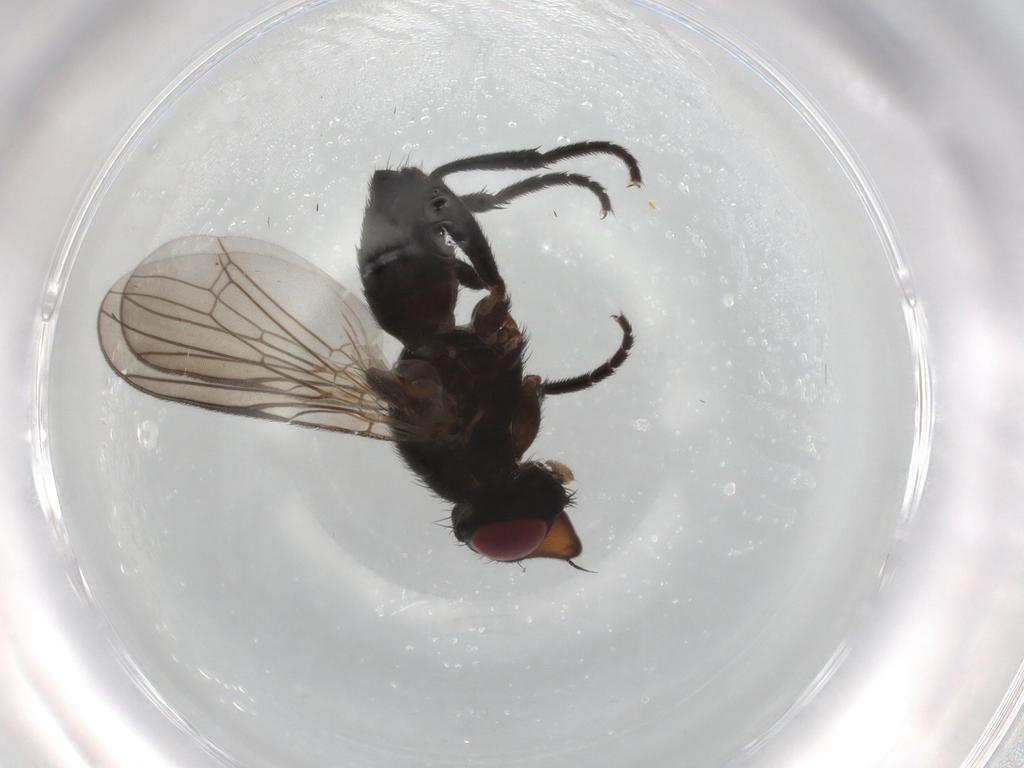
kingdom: Animalia
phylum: Arthropoda
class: Insecta
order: Diptera
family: Calliphoridae
